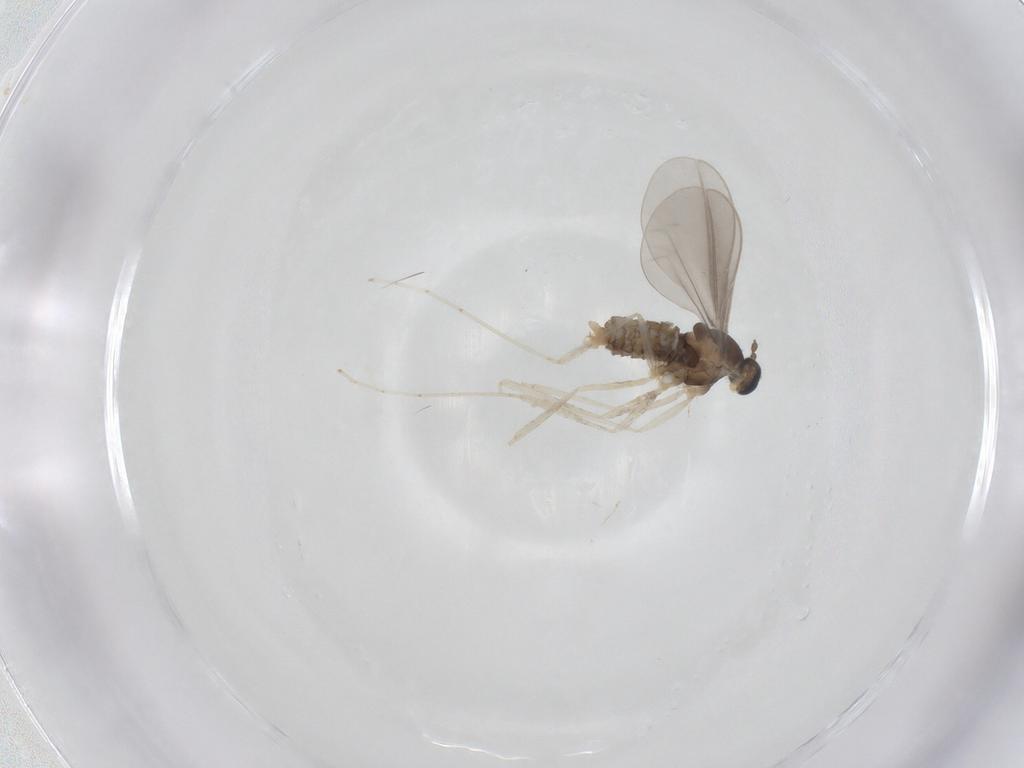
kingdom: Animalia
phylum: Arthropoda
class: Insecta
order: Diptera
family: Cecidomyiidae
